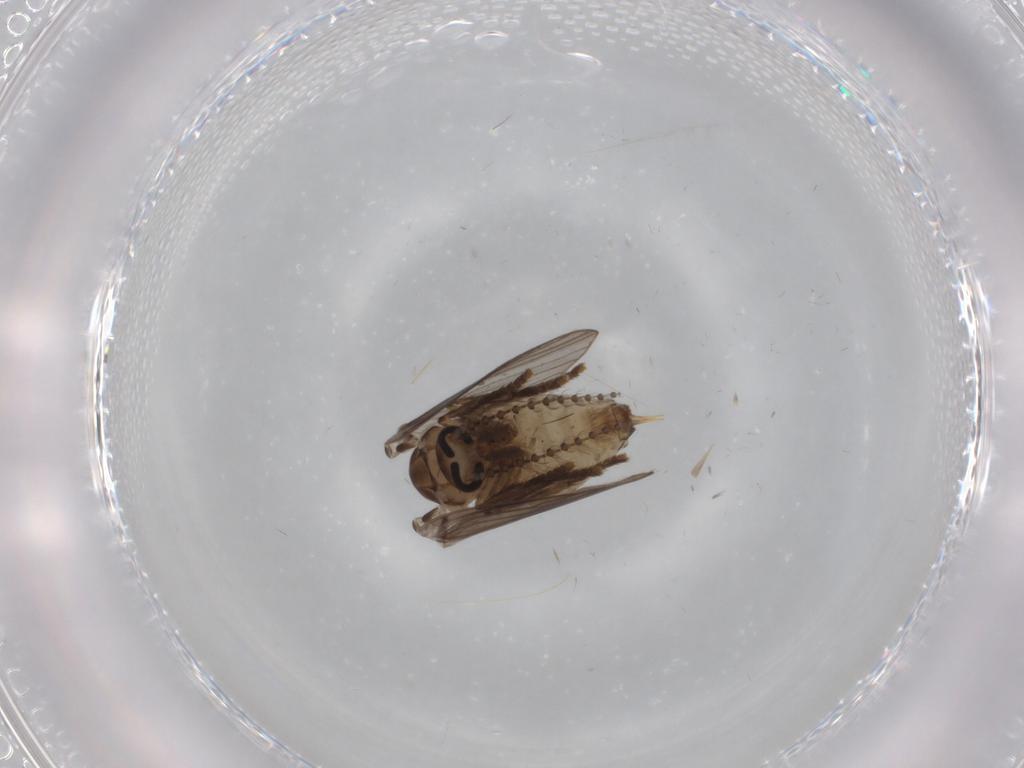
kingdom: Animalia
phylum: Arthropoda
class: Insecta
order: Diptera
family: Psychodidae
